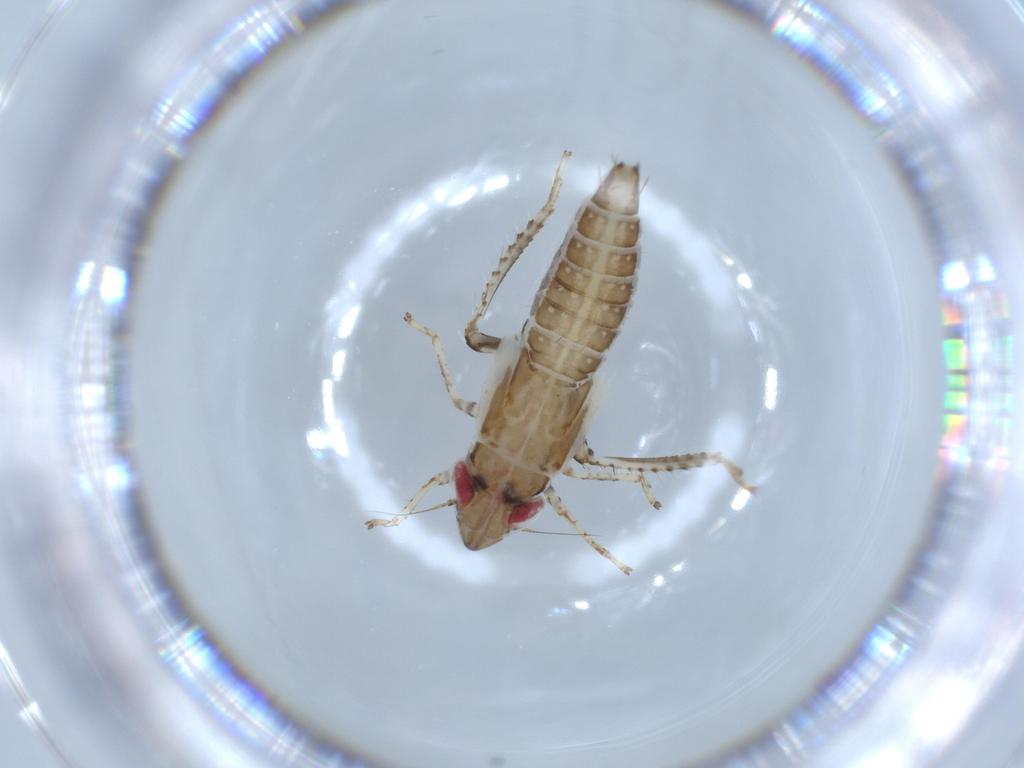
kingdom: Animalia
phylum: Arthropoda
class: Insecta
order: Hemiptera
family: Cicadellidae
